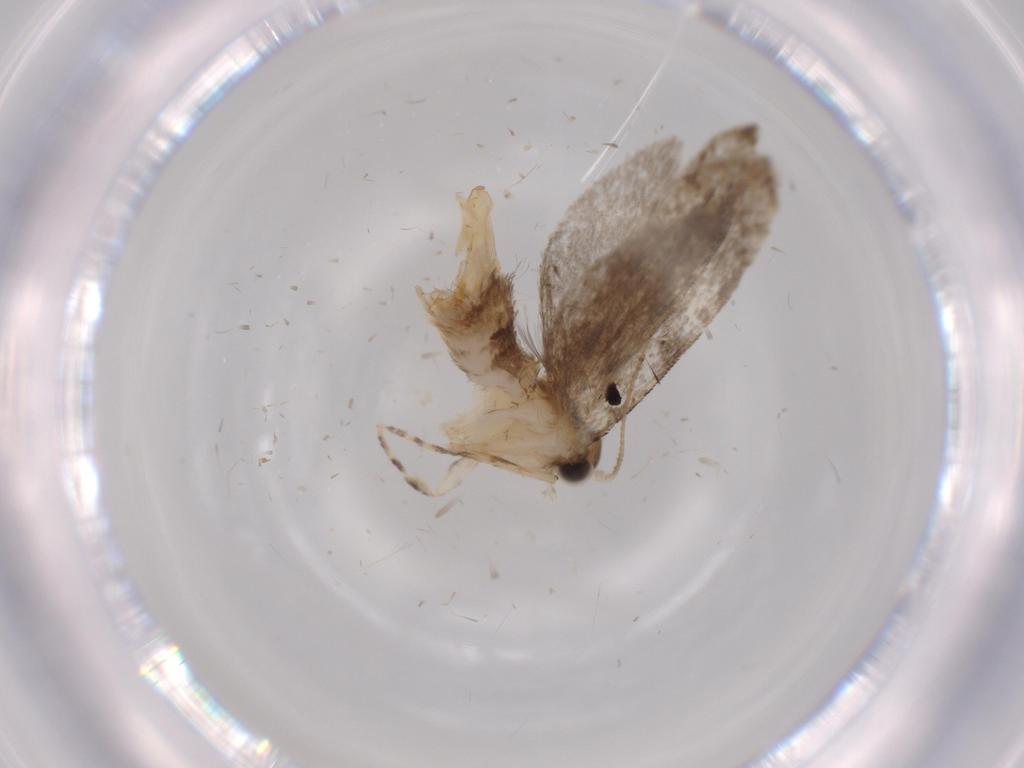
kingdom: Animalia
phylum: Arthropoda
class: Insecta
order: Lepidoptera
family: Tineidae
